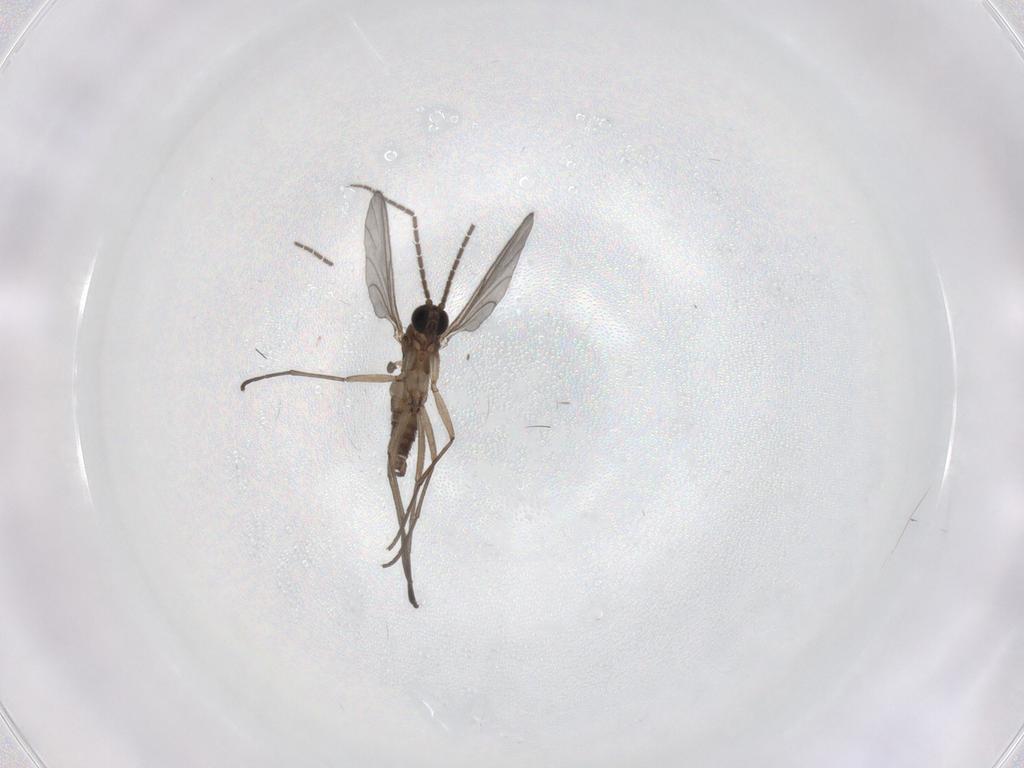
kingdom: Animalia
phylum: Arthropoda
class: Insecta
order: Diptera
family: Sciaridae
